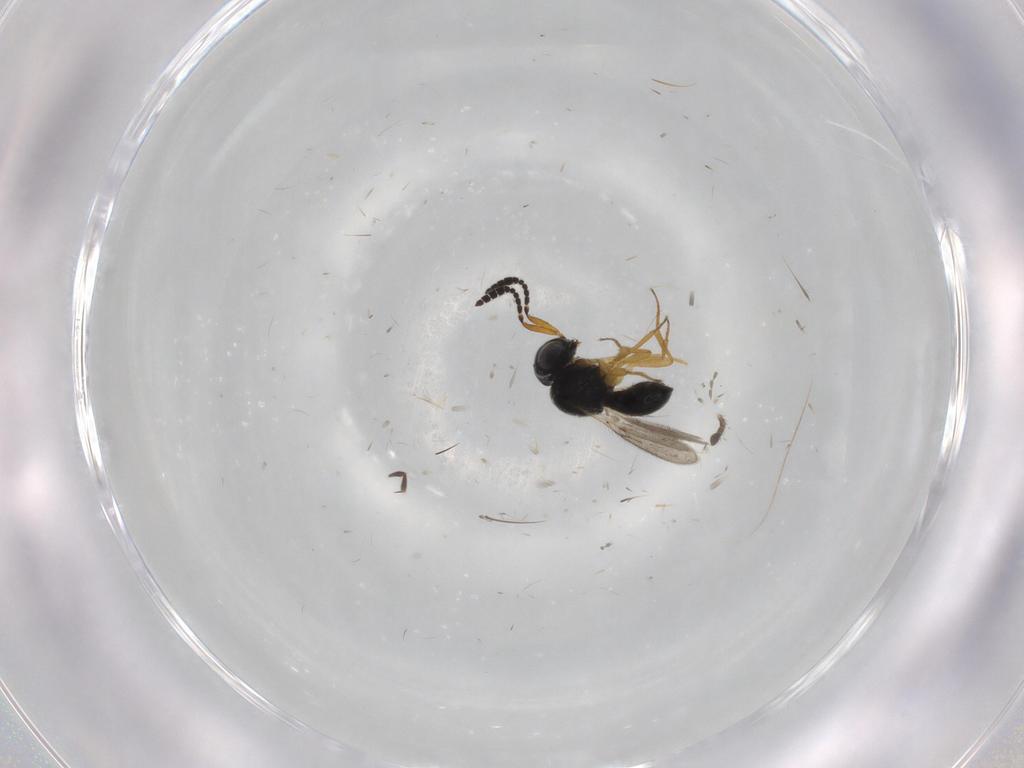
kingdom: Animalia
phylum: Arthropoda
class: Insecta
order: Hymenoptera
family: Scelionidae
